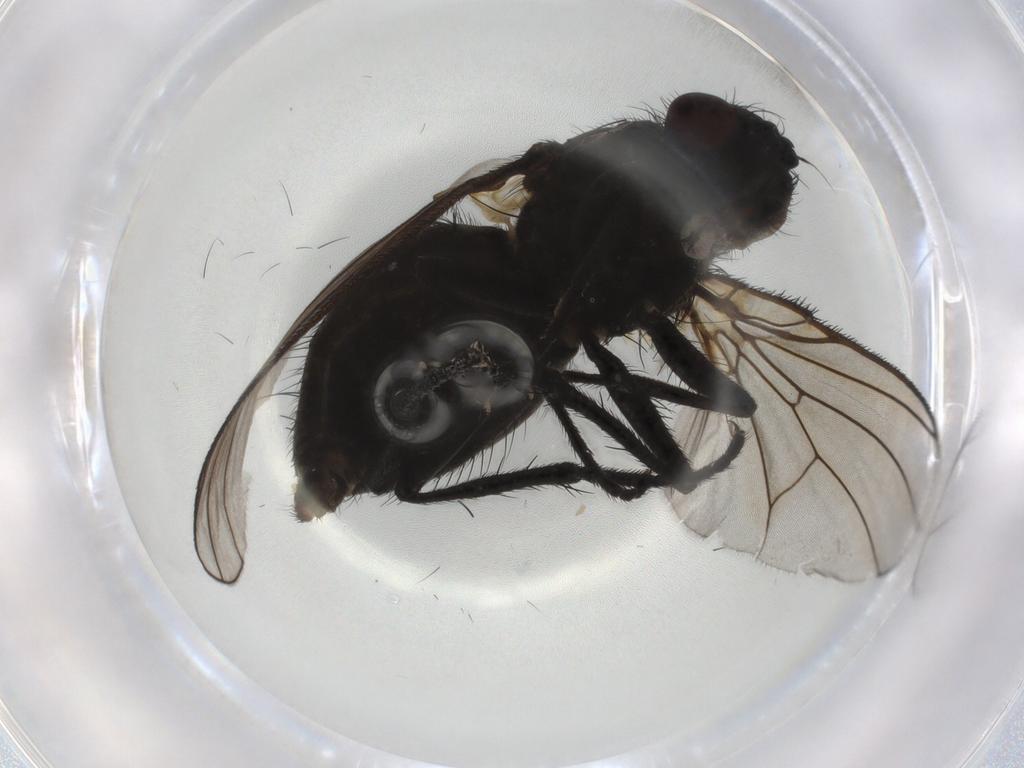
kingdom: Animalia
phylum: Arthropoda
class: Insecta
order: Diptera
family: Muscidae
